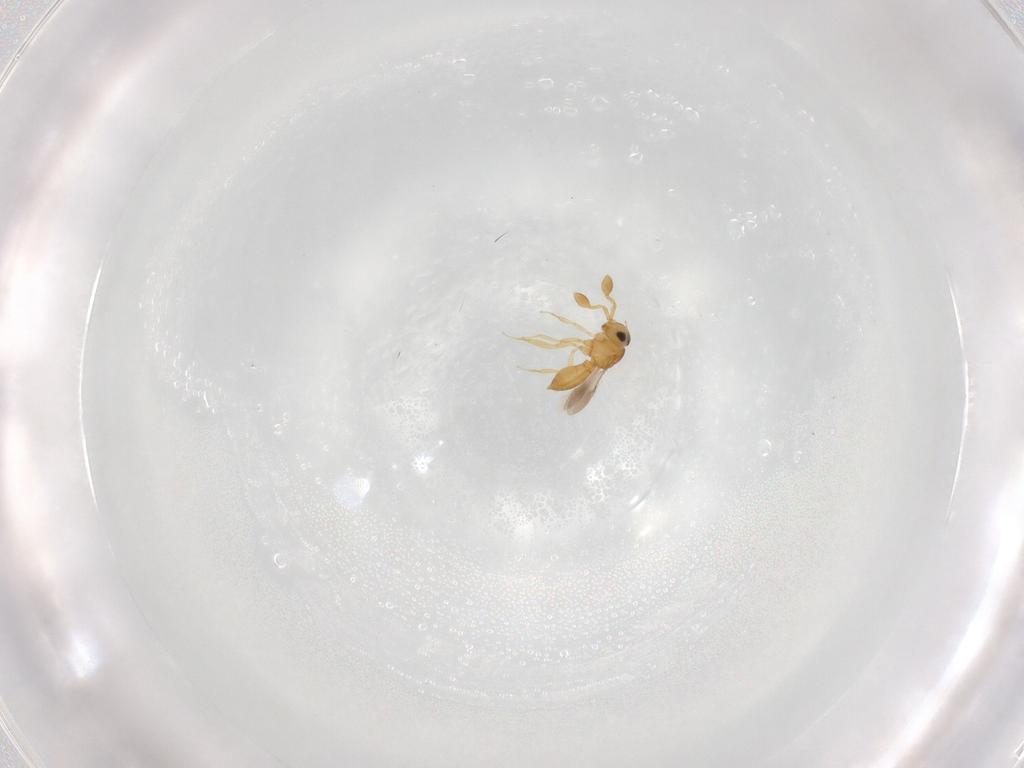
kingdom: Animalia
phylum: Arthropoda
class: Insecta
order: Hymenoptera
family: Scelionidae
